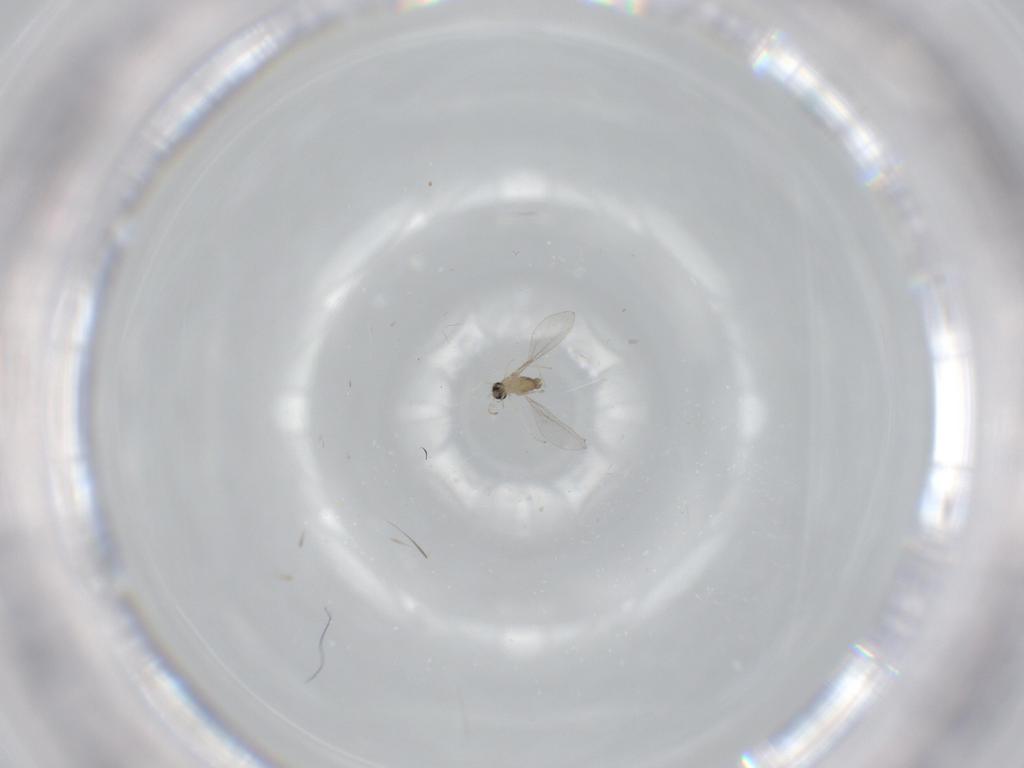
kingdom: Animalia
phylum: Arthropoda
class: Insecta
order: Diptera
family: Cecidomyiidae
